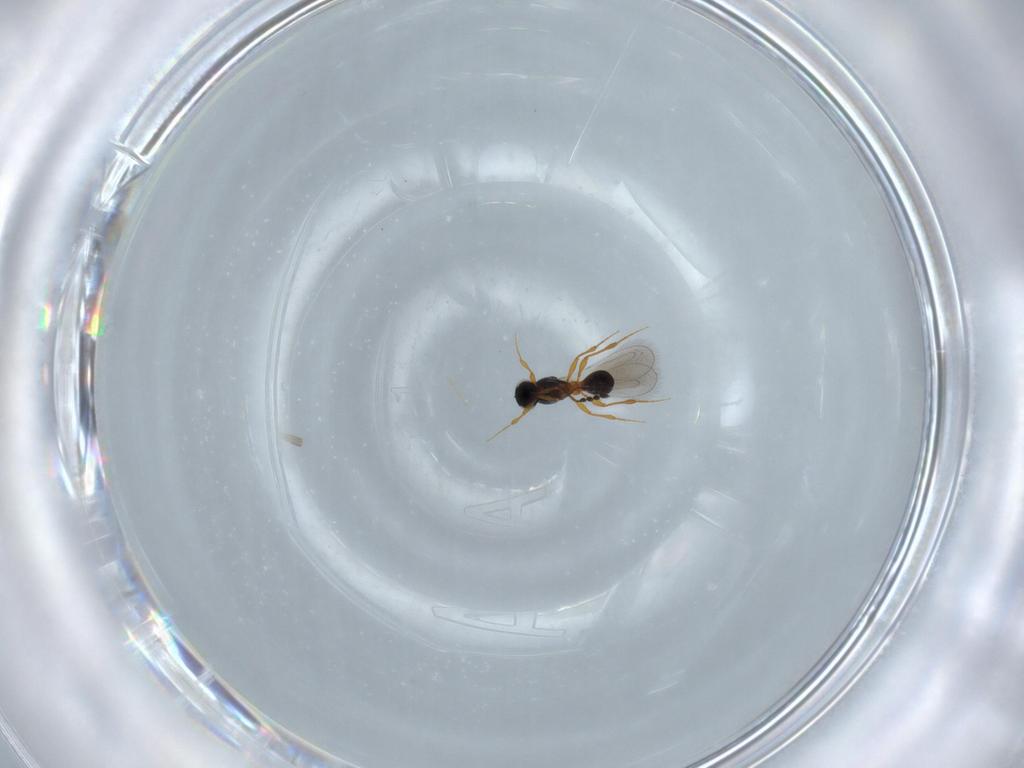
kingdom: Animalia
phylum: Arthropoda
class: Insecta
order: Hymenoptera
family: Platygastridae
